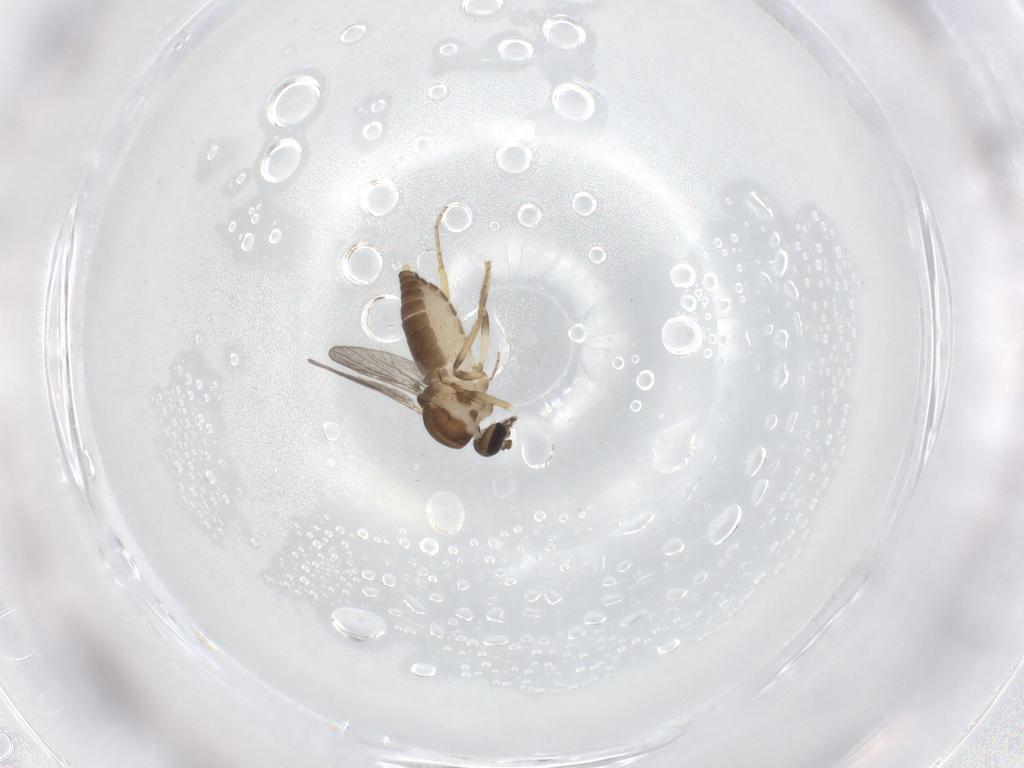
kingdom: Animalia
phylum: Arthropoda
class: Insecta
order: Diptera
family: Ceratopogonidae
